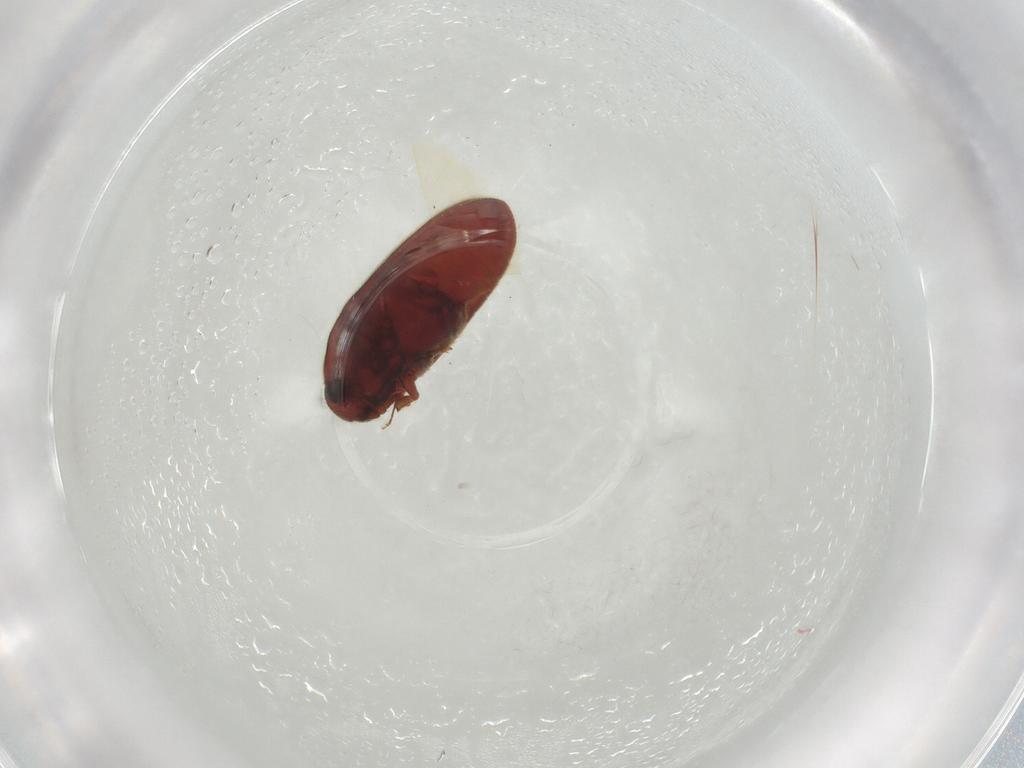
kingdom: Animalia
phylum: Arthropoda
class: Insecta
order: Coleoptera
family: Throscidae
